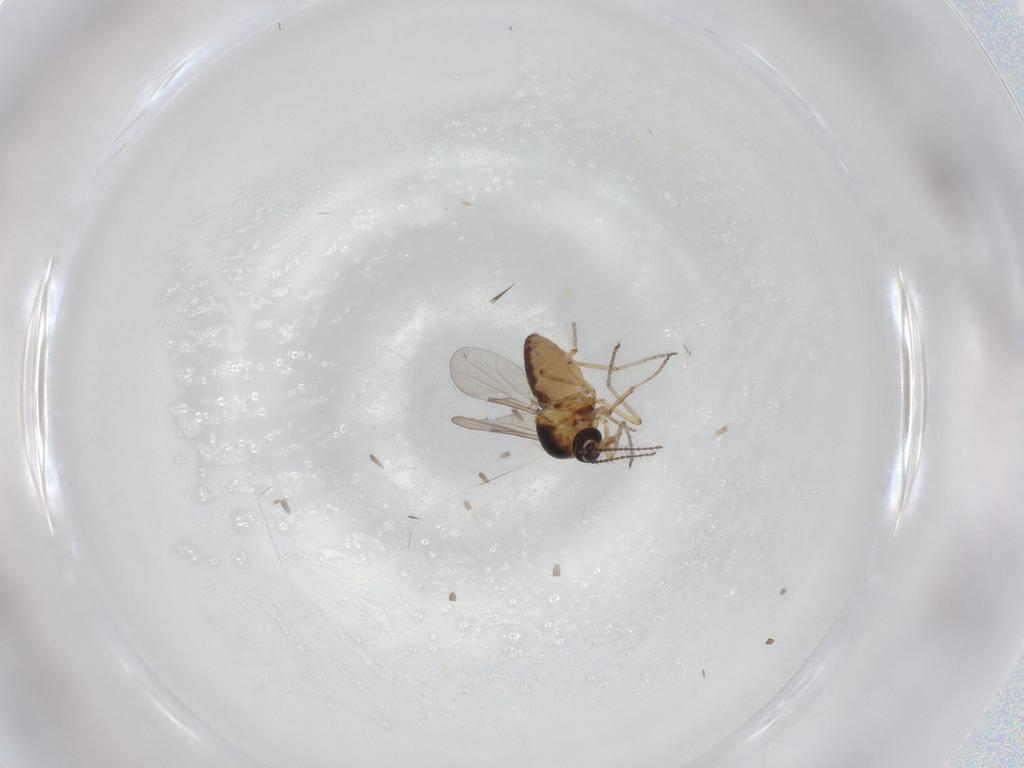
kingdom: Animalia
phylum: Arthropoda
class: Insecta
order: Diptera
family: Ceratopogonidae
